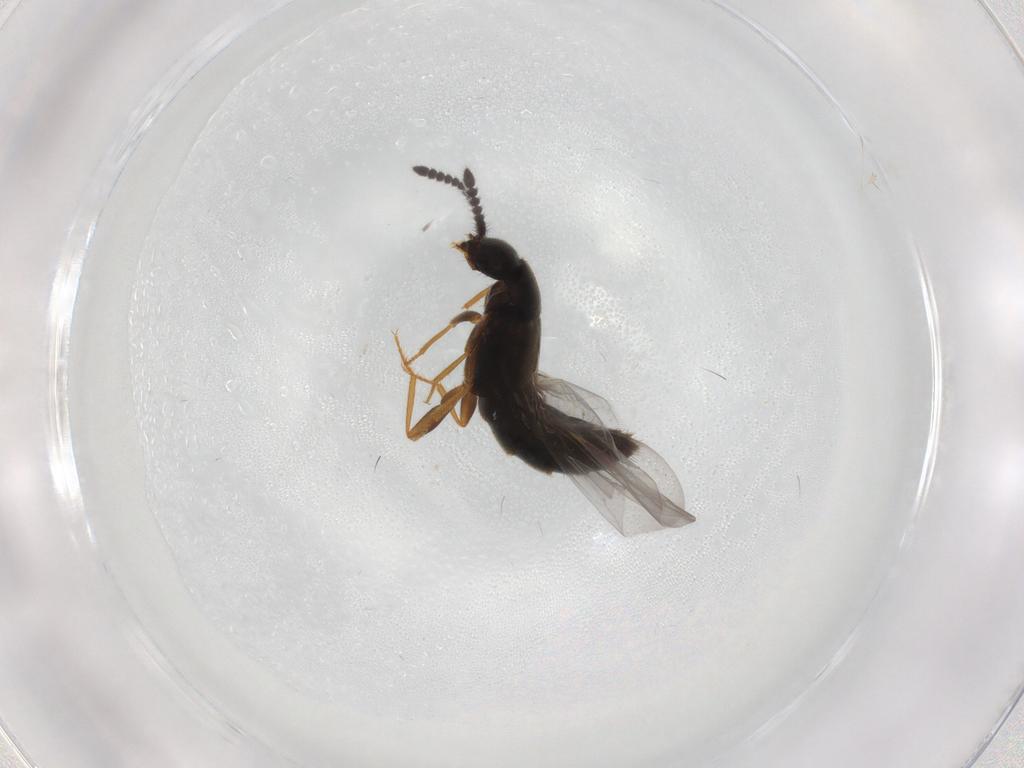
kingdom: Animalia
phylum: Arthropoda
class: Insecta
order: Coleoptera
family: Staphylinidae
